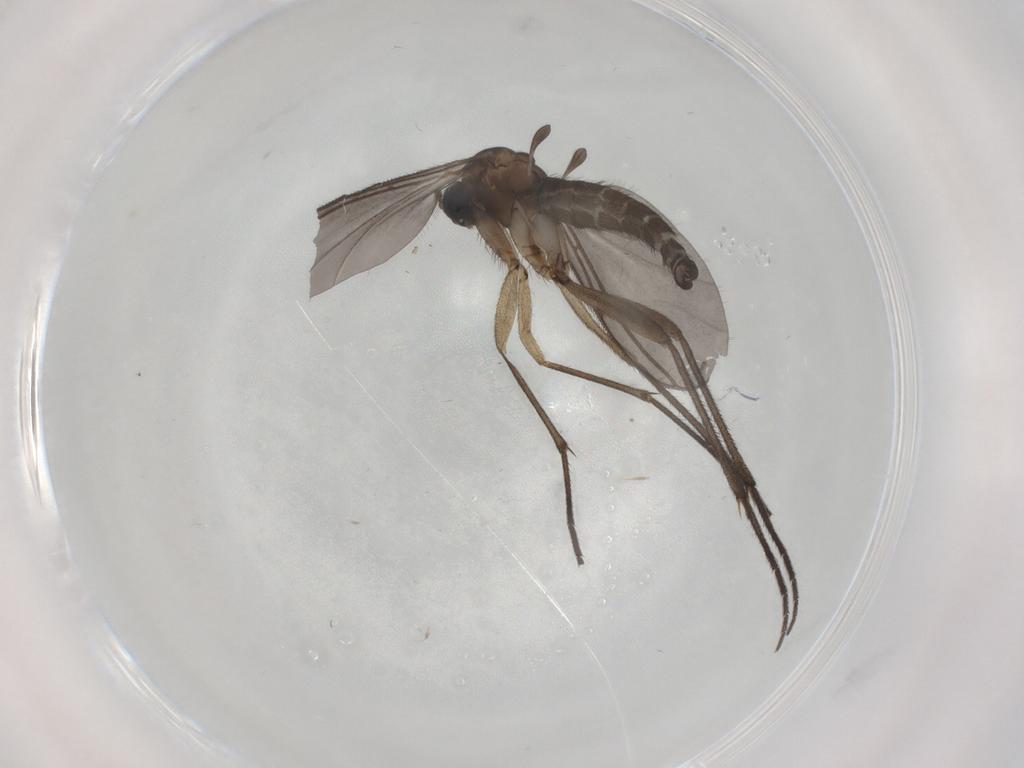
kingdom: Animalia
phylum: Arthropoda
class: Insecta
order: Diptera
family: Sciaridae
